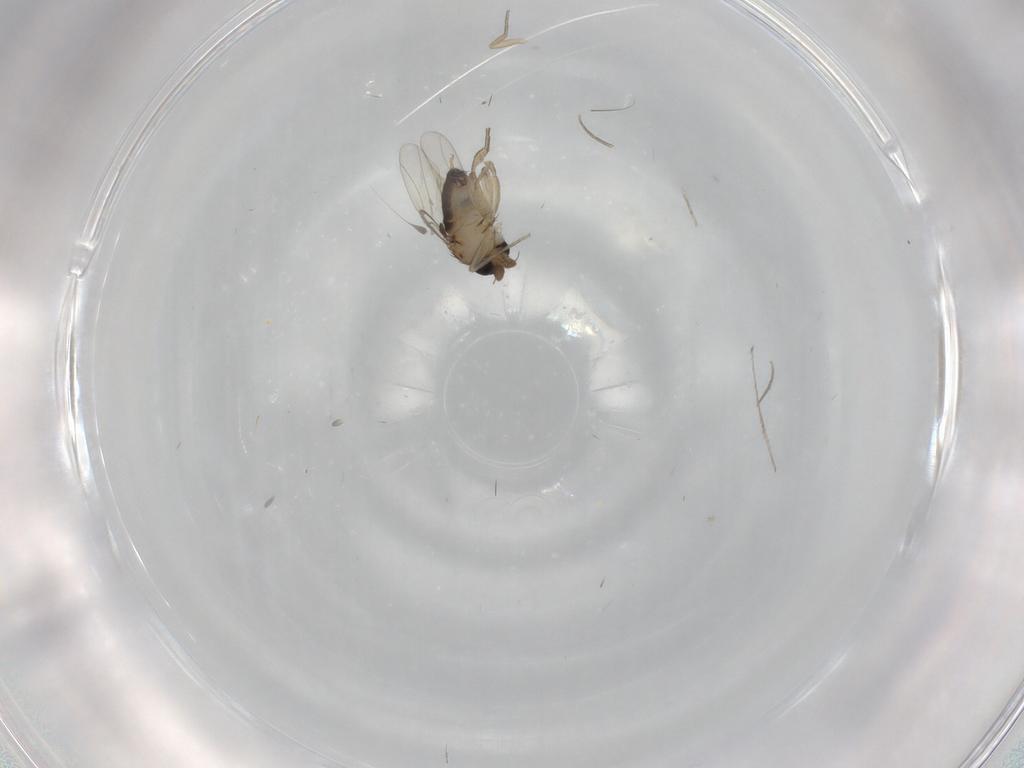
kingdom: Animalia
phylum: Arthropoda
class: Insecta
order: Diptera
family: Phoridae
